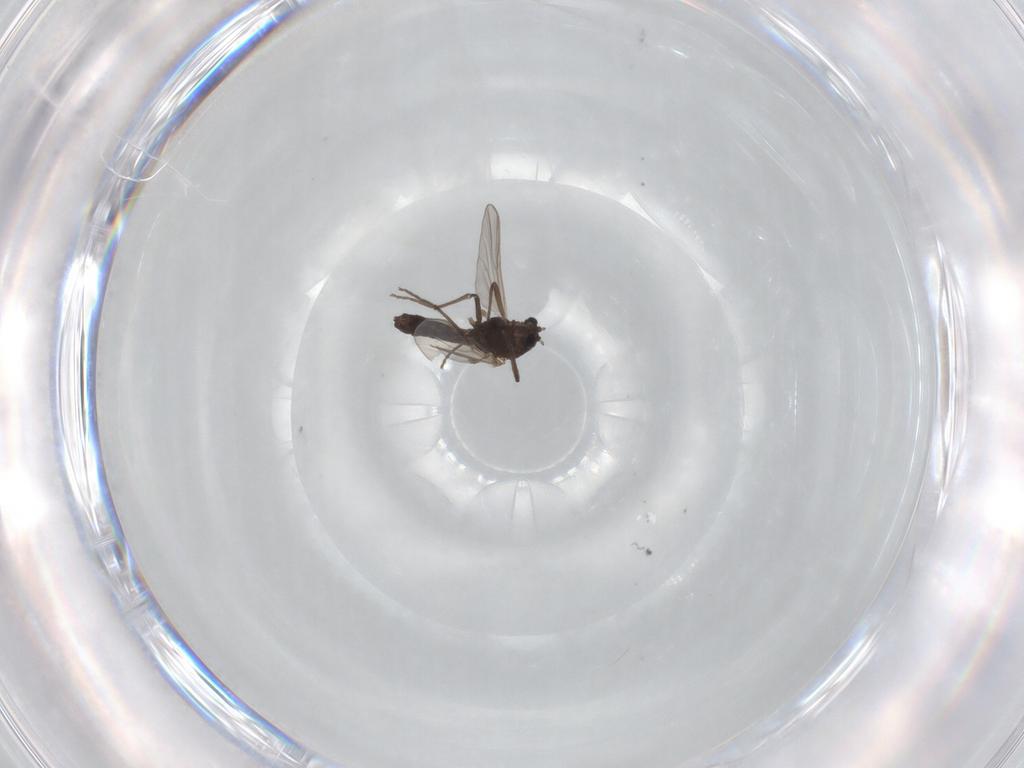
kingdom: Animalia
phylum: Arthropoda
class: Insecta
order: Diptera
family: Chironomidae
